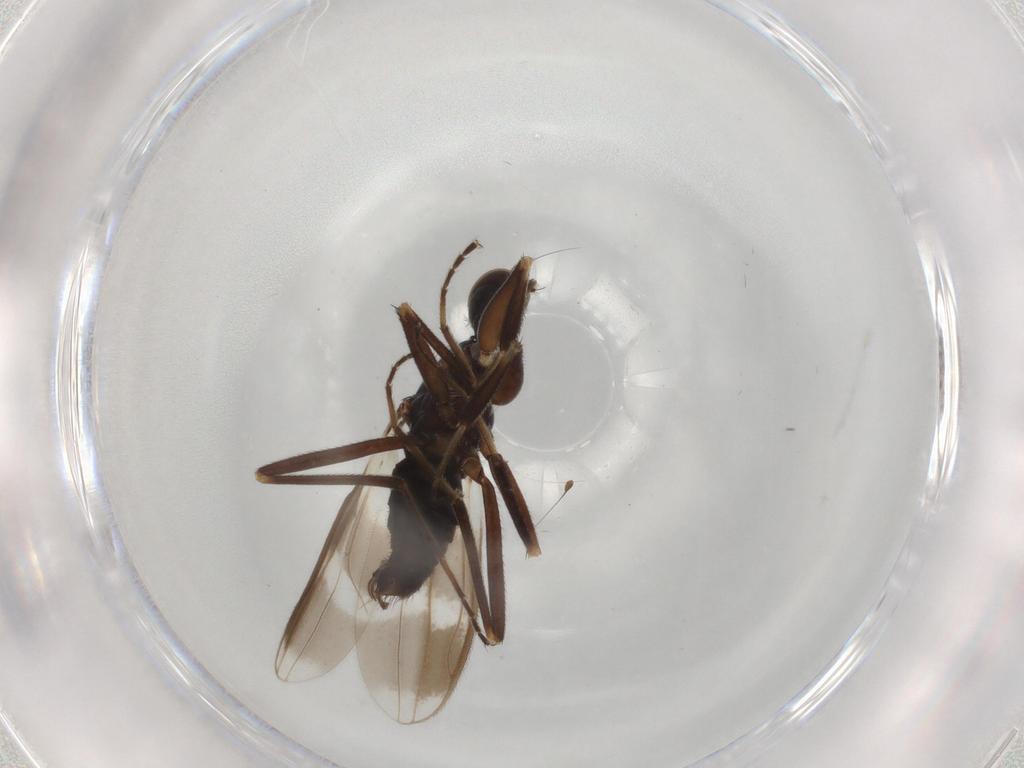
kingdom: Animalia
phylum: Arthropoda
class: Insecta
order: Diptera
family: Lonchopteridae
